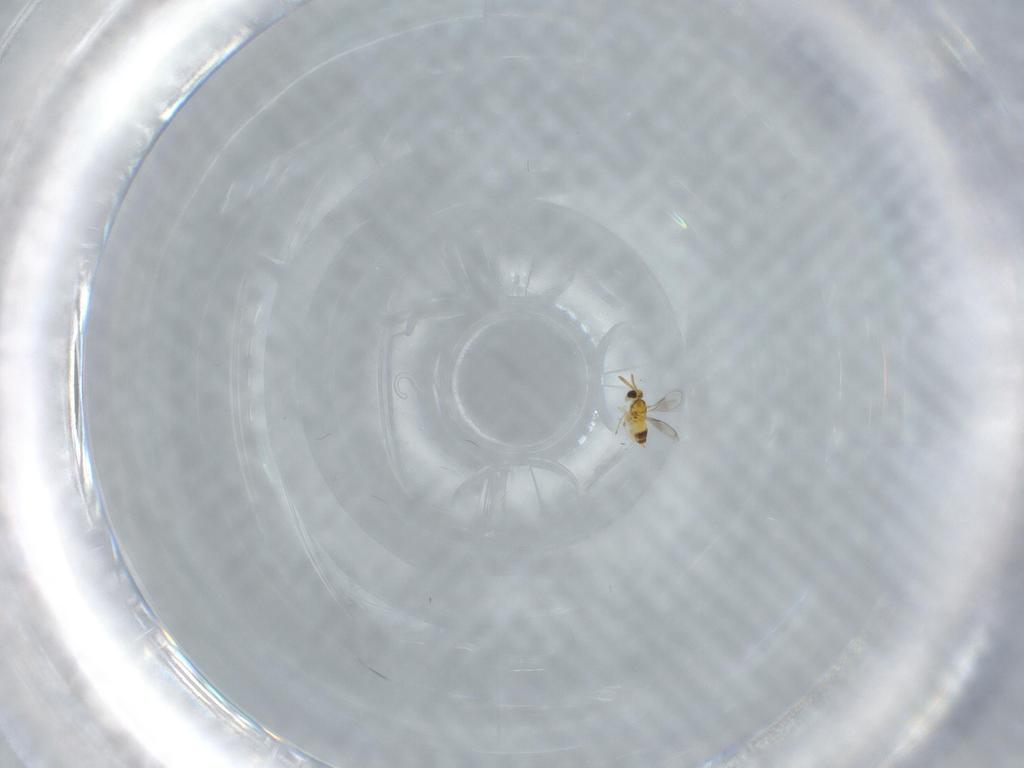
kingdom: Animalia
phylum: Arthropoda
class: Insecta
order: Hymenoptera
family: Aphelinidae
